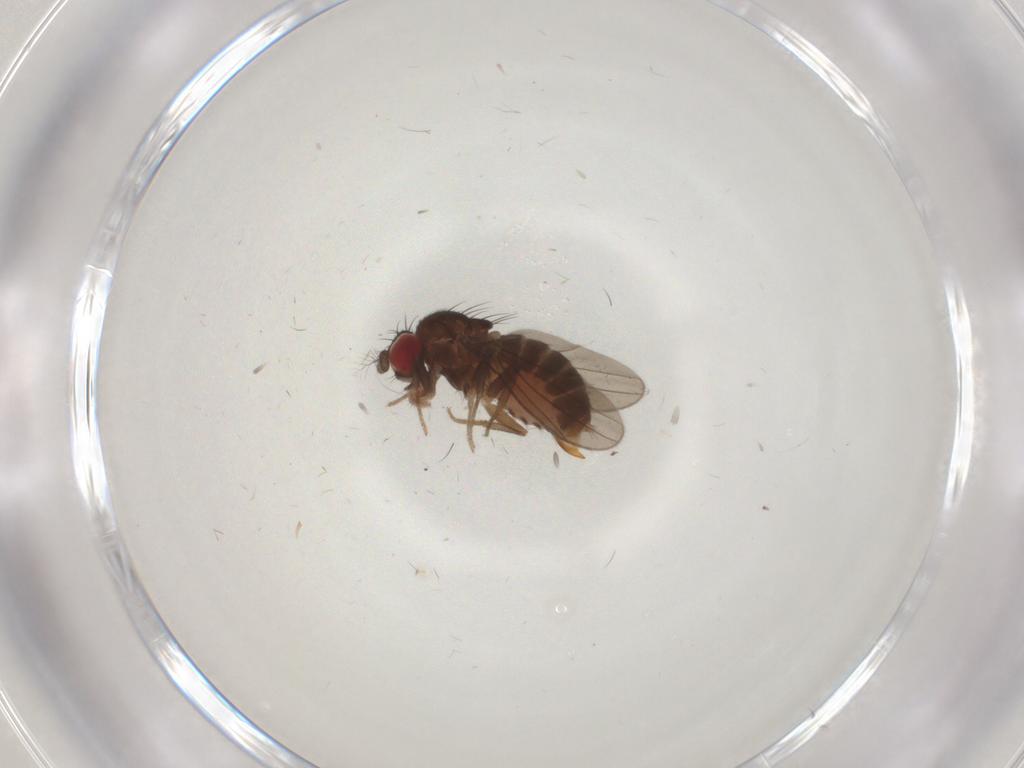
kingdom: Animalia
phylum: Arthropoda
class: Insecta
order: Diptera
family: Drosophilidae
